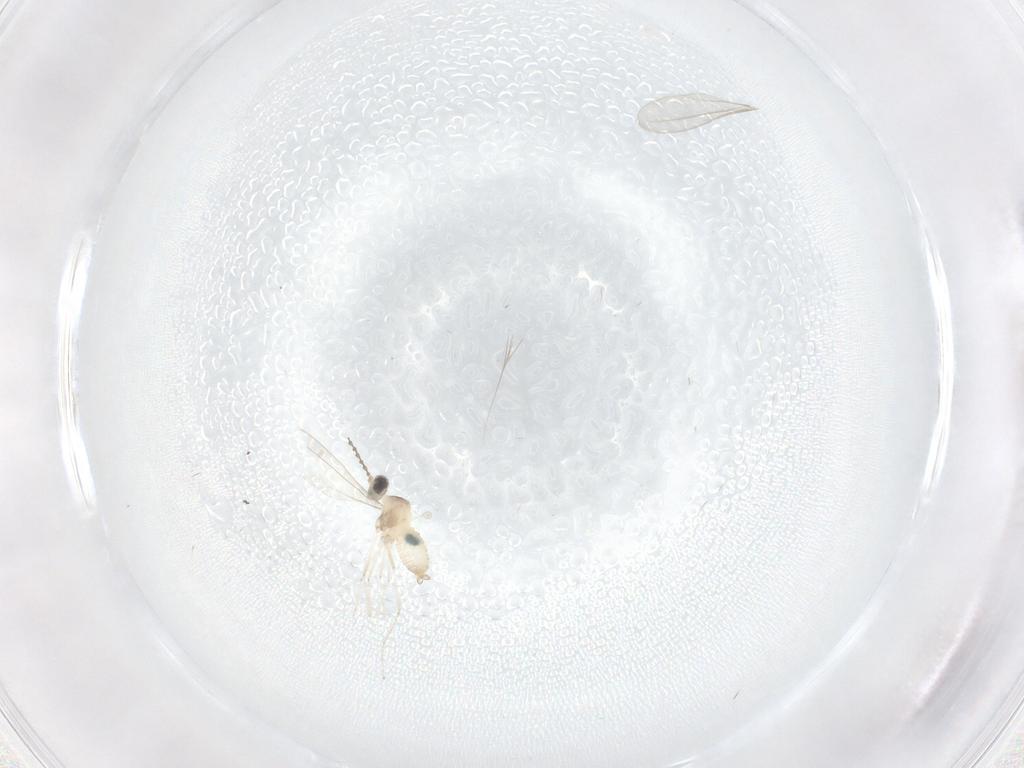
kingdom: Animalia
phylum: Arthropoda
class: Insecta
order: Diptera
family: Cecidomyiidae
